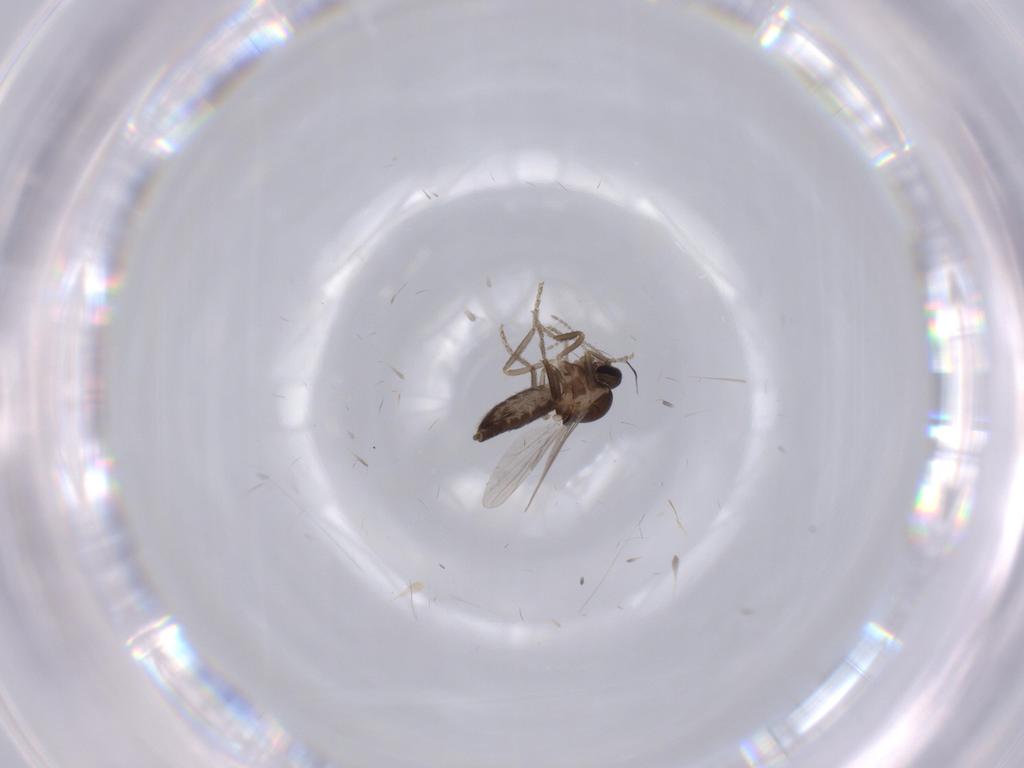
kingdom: Animalia
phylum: Arthropoda
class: Insecta
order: Diptera
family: Ceratopogonidae
